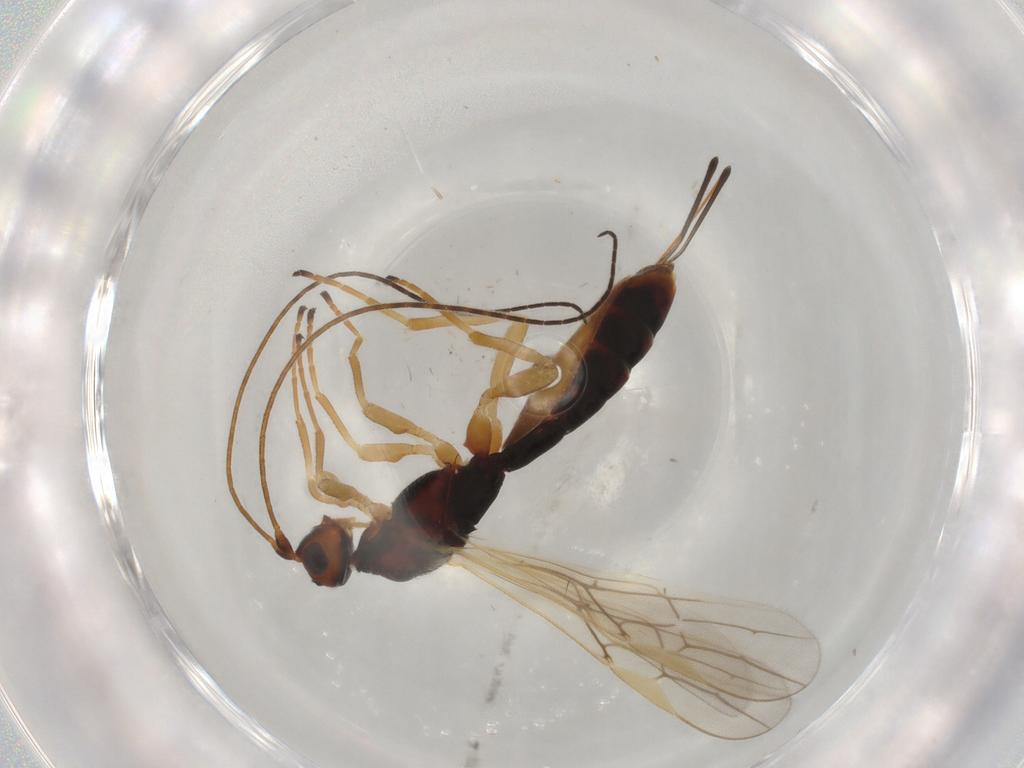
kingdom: Animalia
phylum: Arthropoda
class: Insecta
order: Hymenoptera
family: Braconidae
